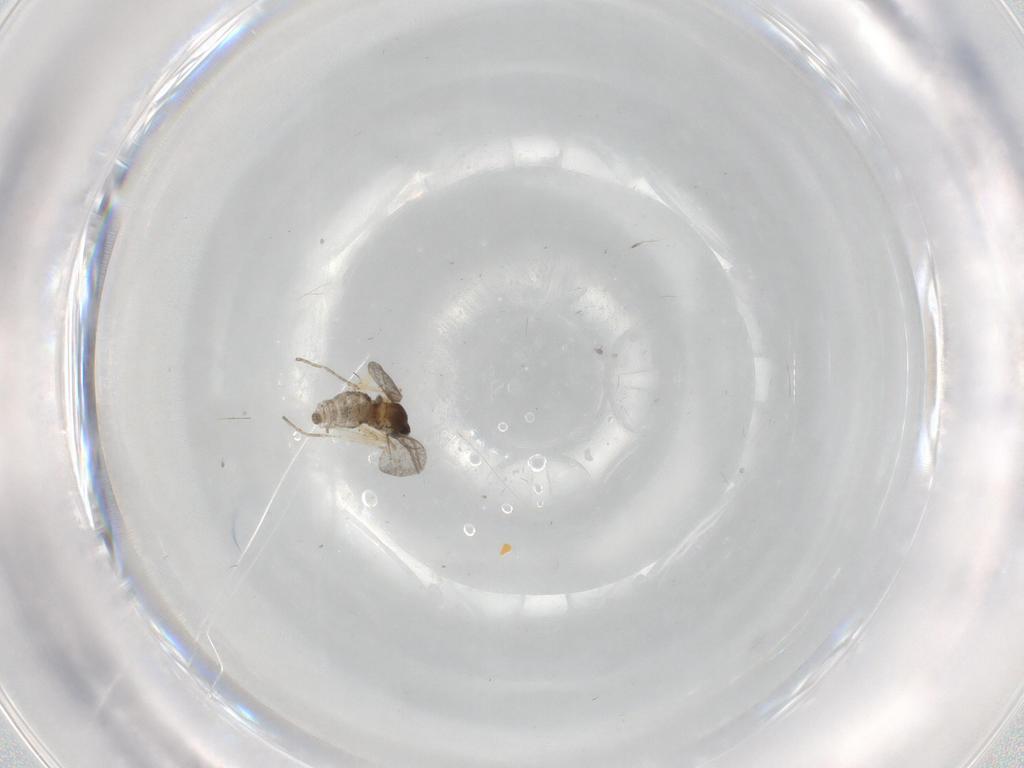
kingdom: Animalia
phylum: Arthropoda
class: Insecta
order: Diptera
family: Cecidomyiidae
